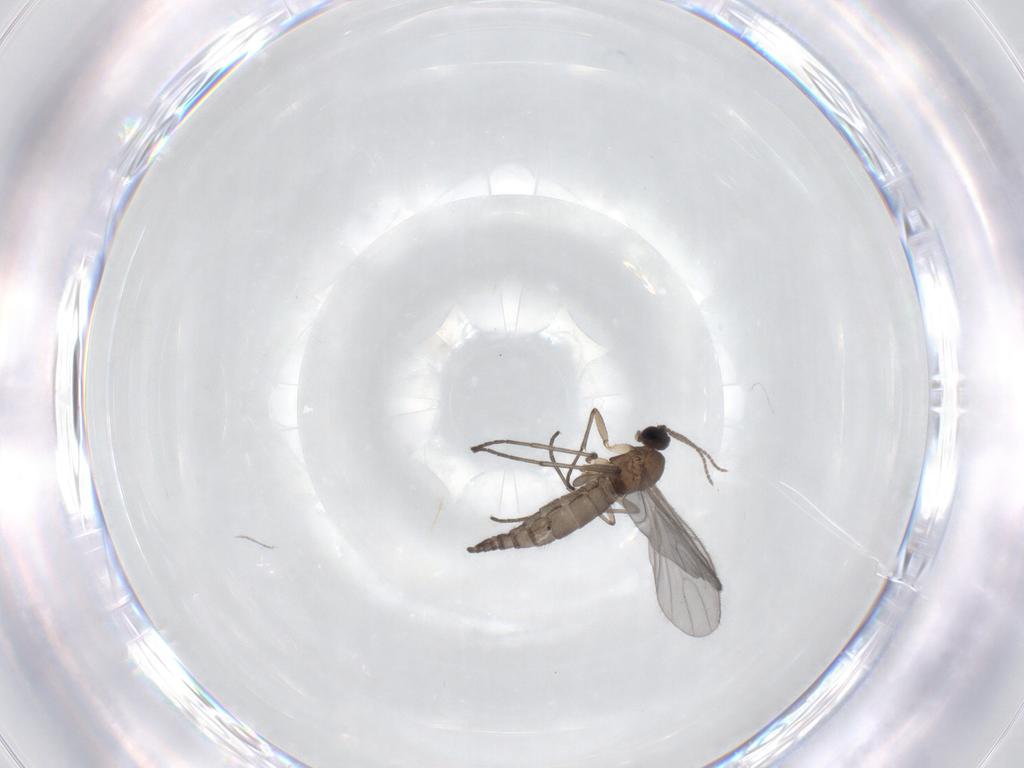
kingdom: Animalia
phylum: Arthropoda
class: Insecta
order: Diptera
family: Sciaridae
